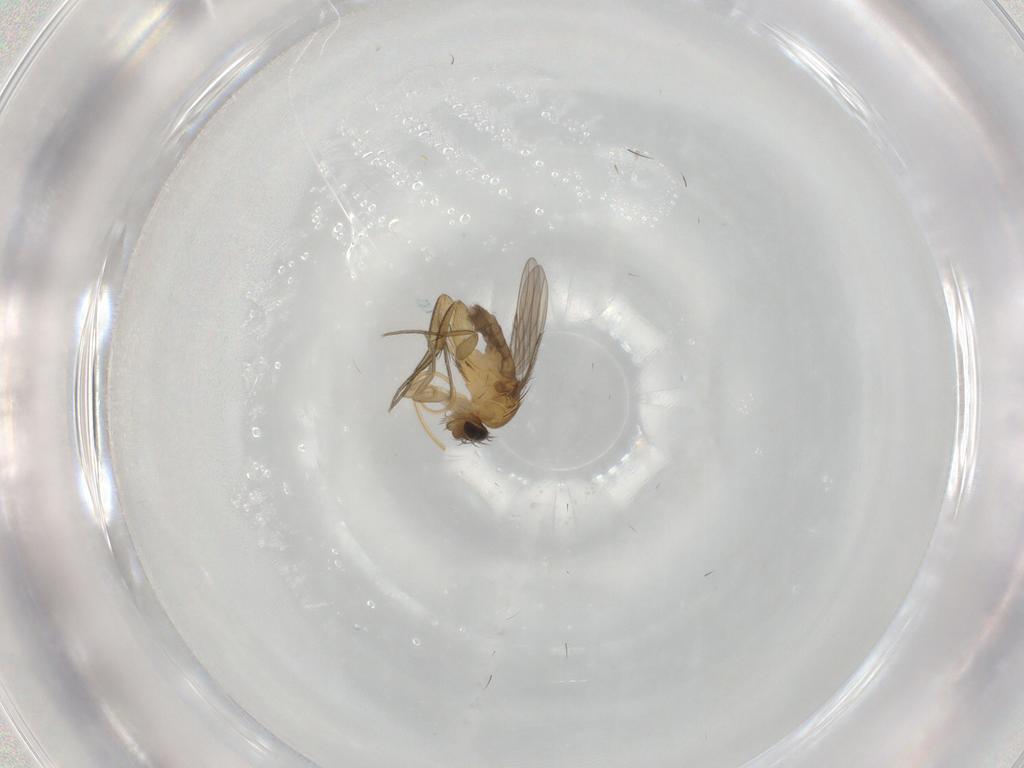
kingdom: Animalia
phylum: Arthropoda
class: Insecta
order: Diptera
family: Phoridae
